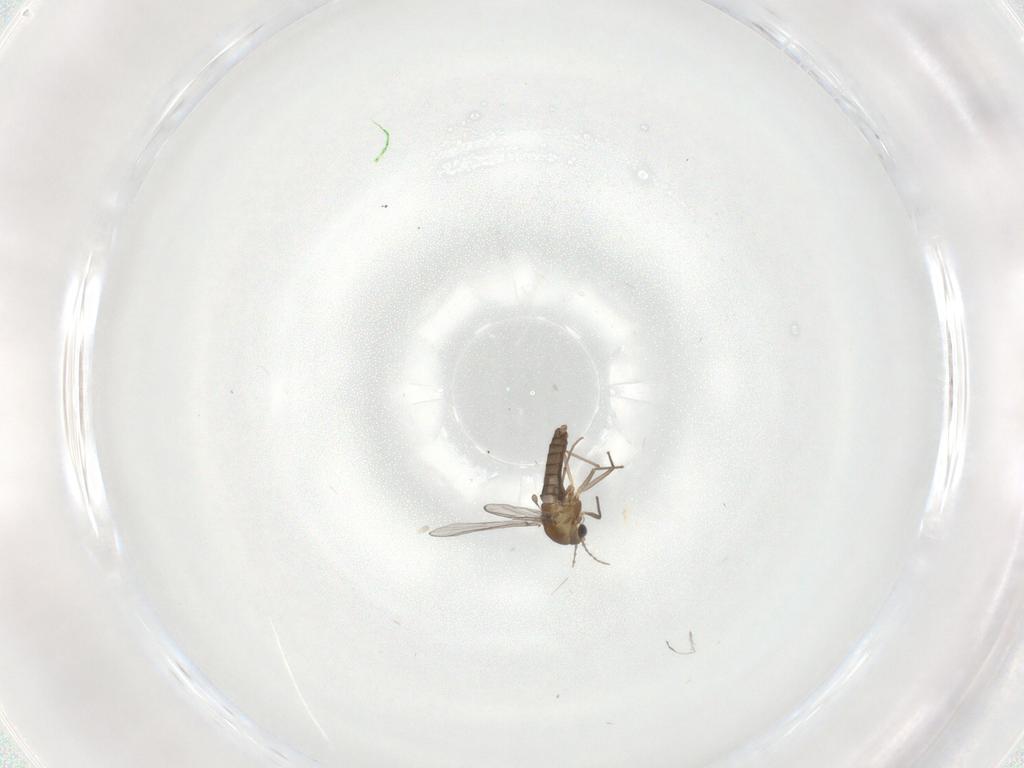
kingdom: Animalia
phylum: Arthropoda
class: Insecta
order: Diptera
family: Chironomidae
